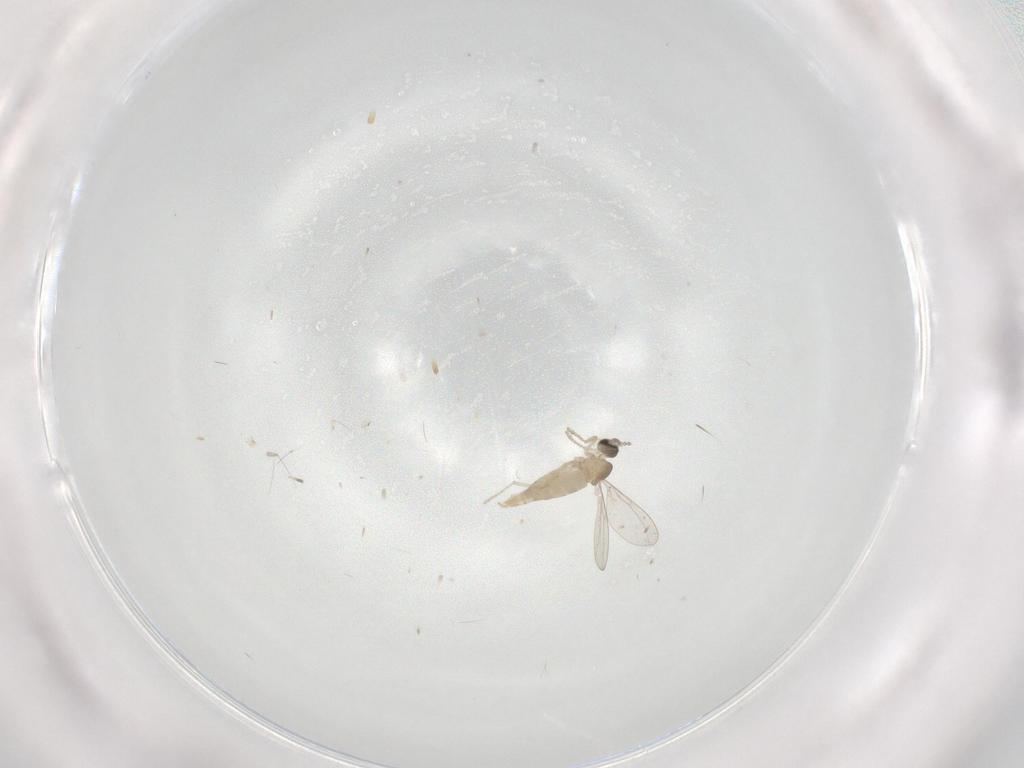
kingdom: Animalia
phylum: Arthropoda
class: Insecta
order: Diptera
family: Cecidomyiidae
